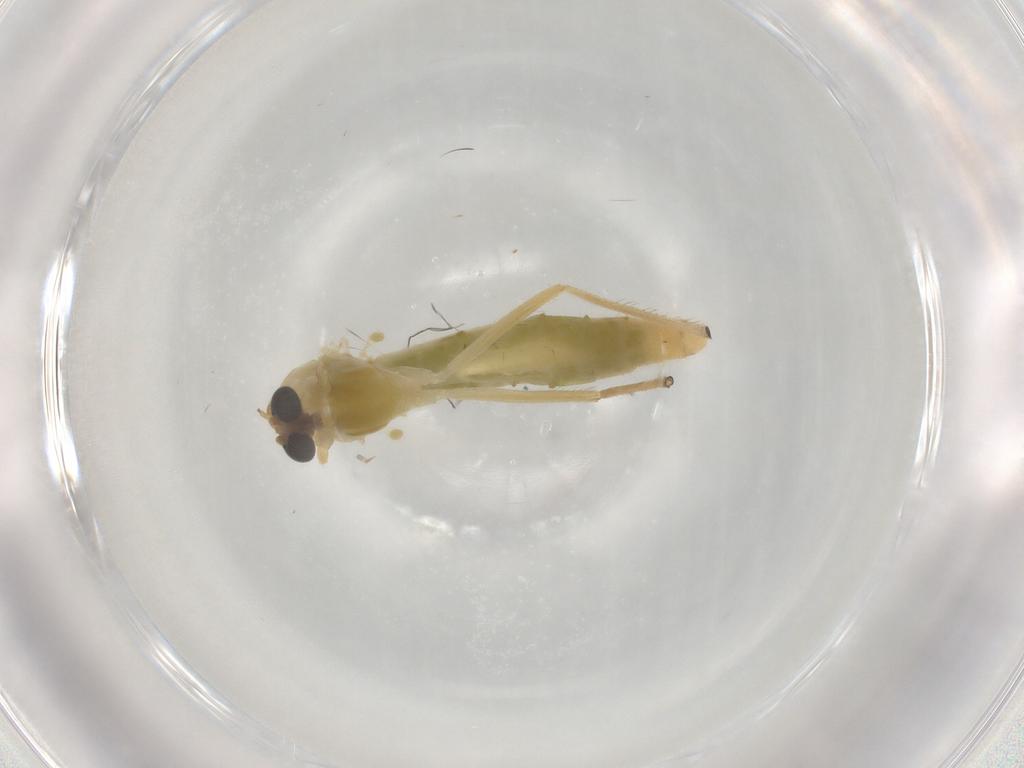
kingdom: Animalia
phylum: Arthropoda
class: Insecta
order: Diptera
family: Chironomidae
